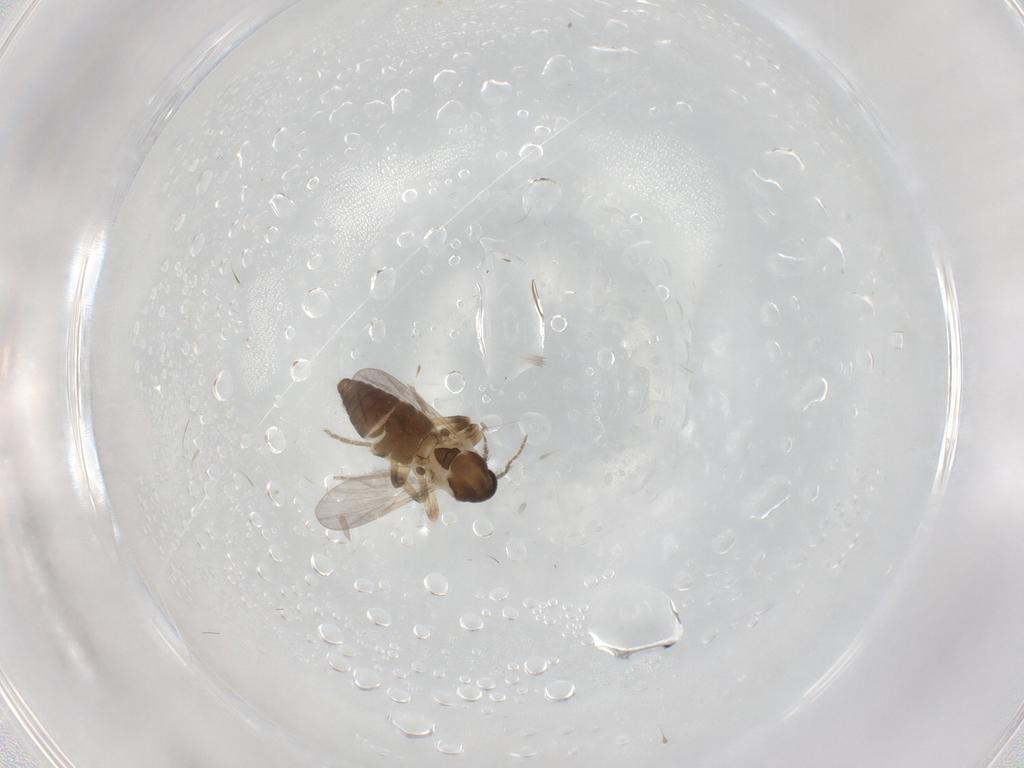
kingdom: Animalia
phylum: Arthropoda
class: Insecta
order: Diptera
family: Ceratopogonidae
